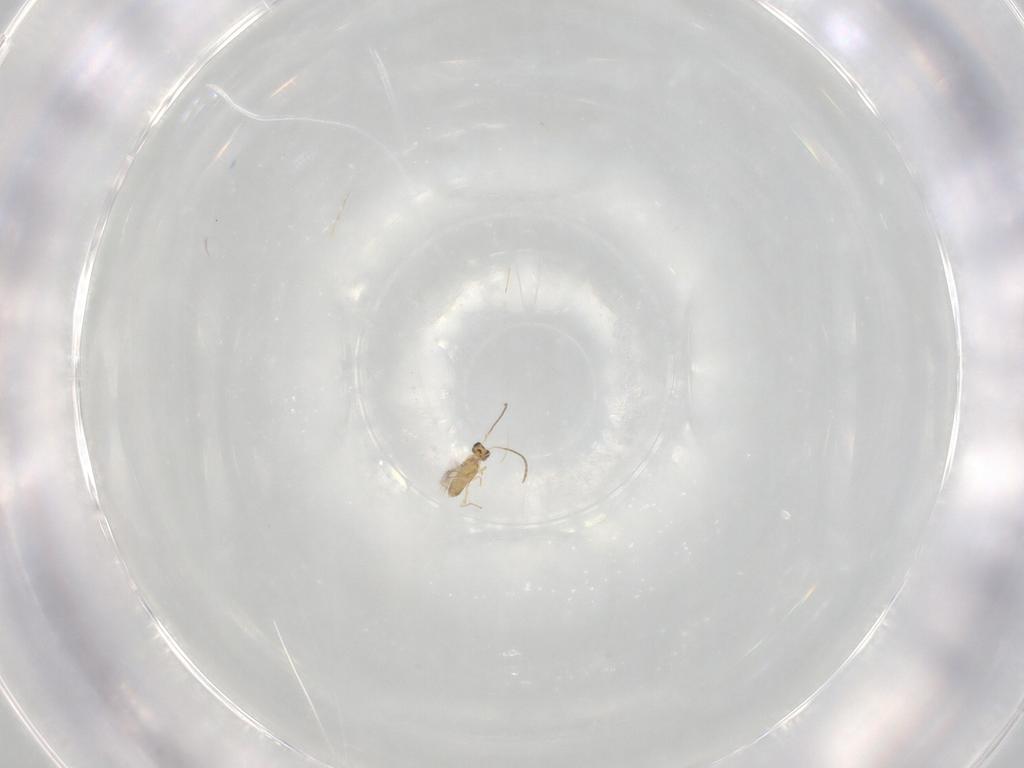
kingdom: Animalia
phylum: Arthropoda
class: Insecta
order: Hymenoptera
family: Mymaridae
